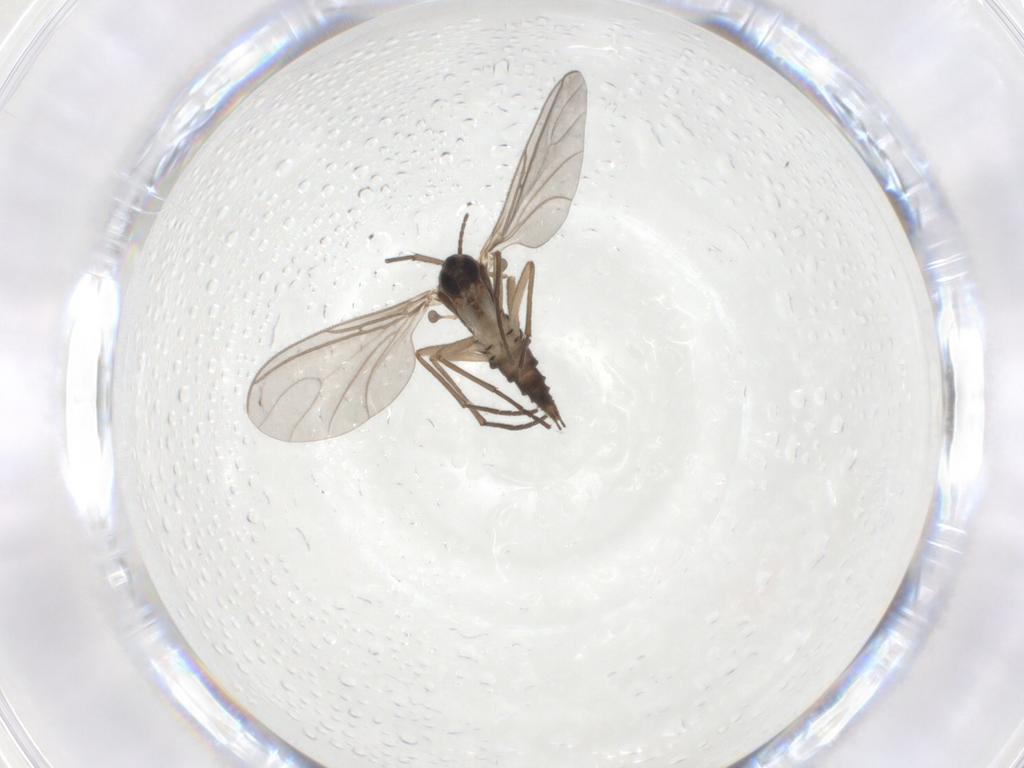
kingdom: Animalia
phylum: Arthropoda
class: Insecta
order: Diptera
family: Sciaridae
